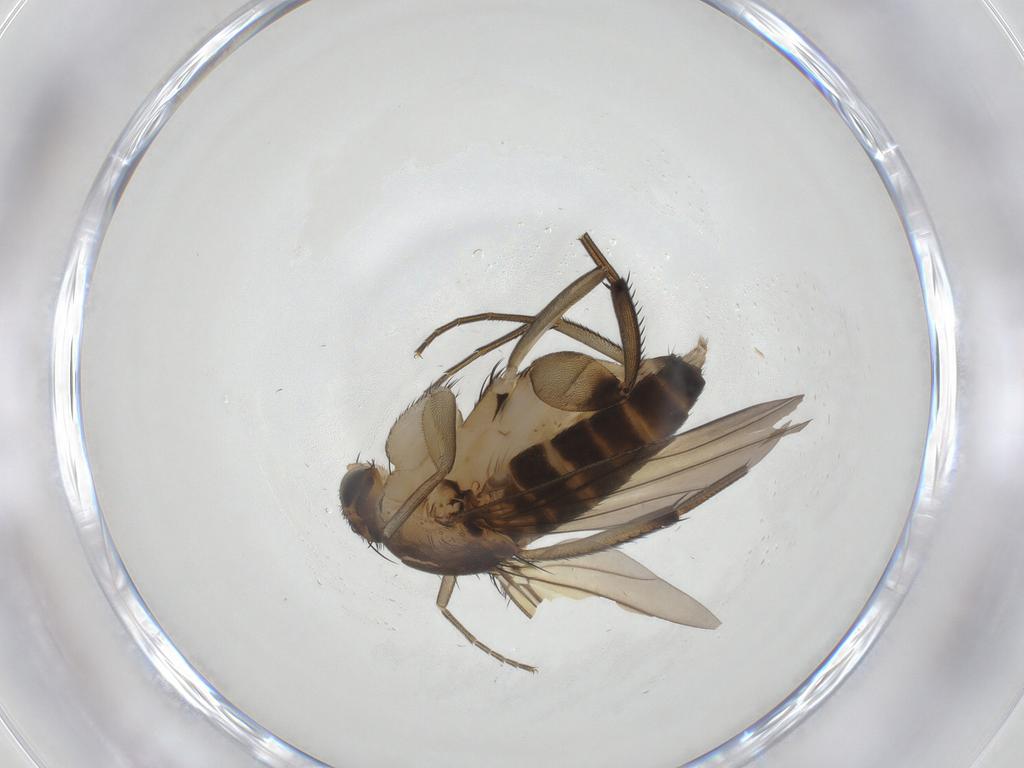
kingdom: Animalia
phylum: Arthropoda
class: Insecta
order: Diptera
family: Phoridae
